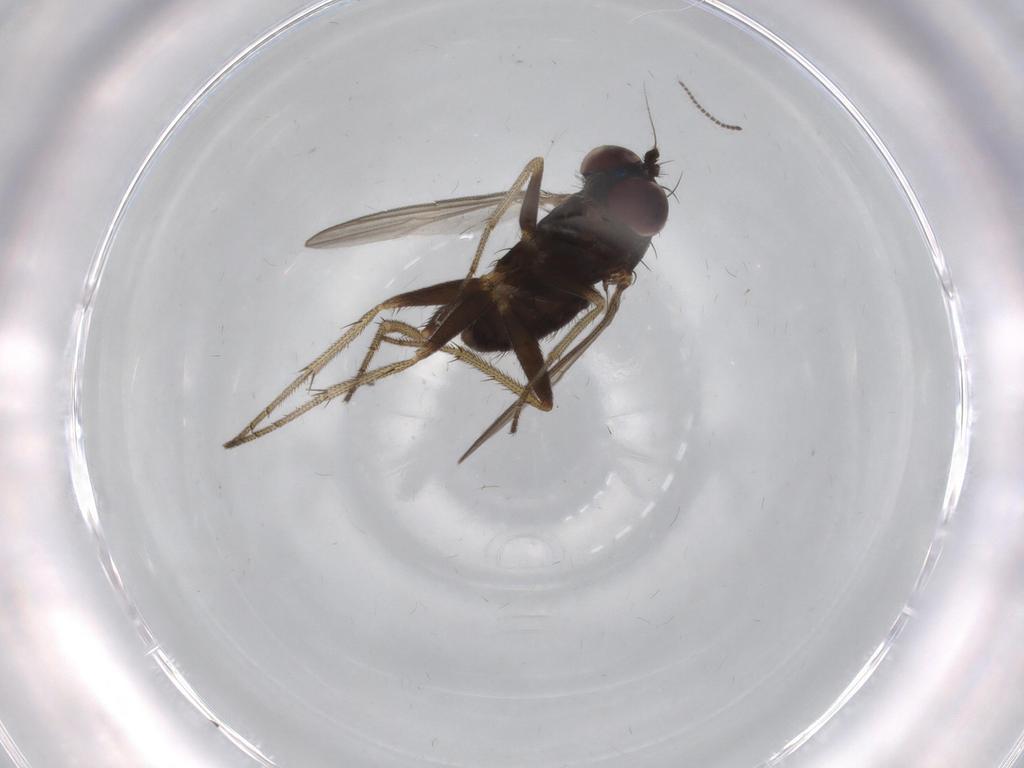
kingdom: Animalia
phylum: Arthropoda
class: Insecta
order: Diptera
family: Dolichopodidae
